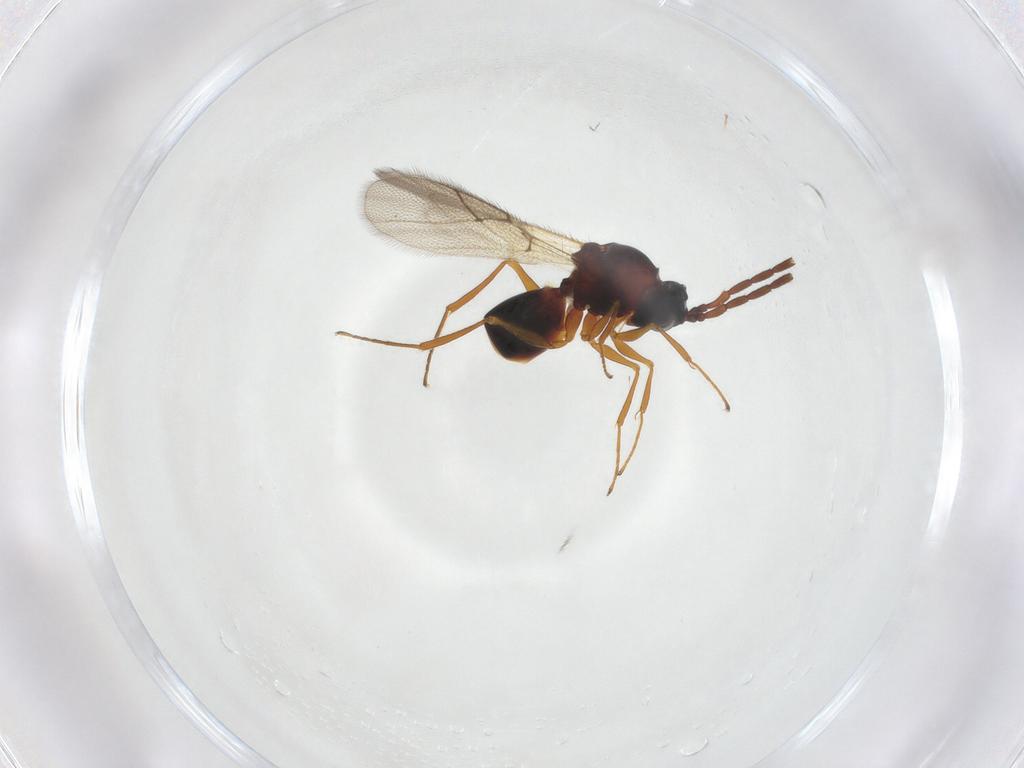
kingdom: Animalia
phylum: Arthropoda
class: Insecta
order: Hymenoptera
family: Figitidae
